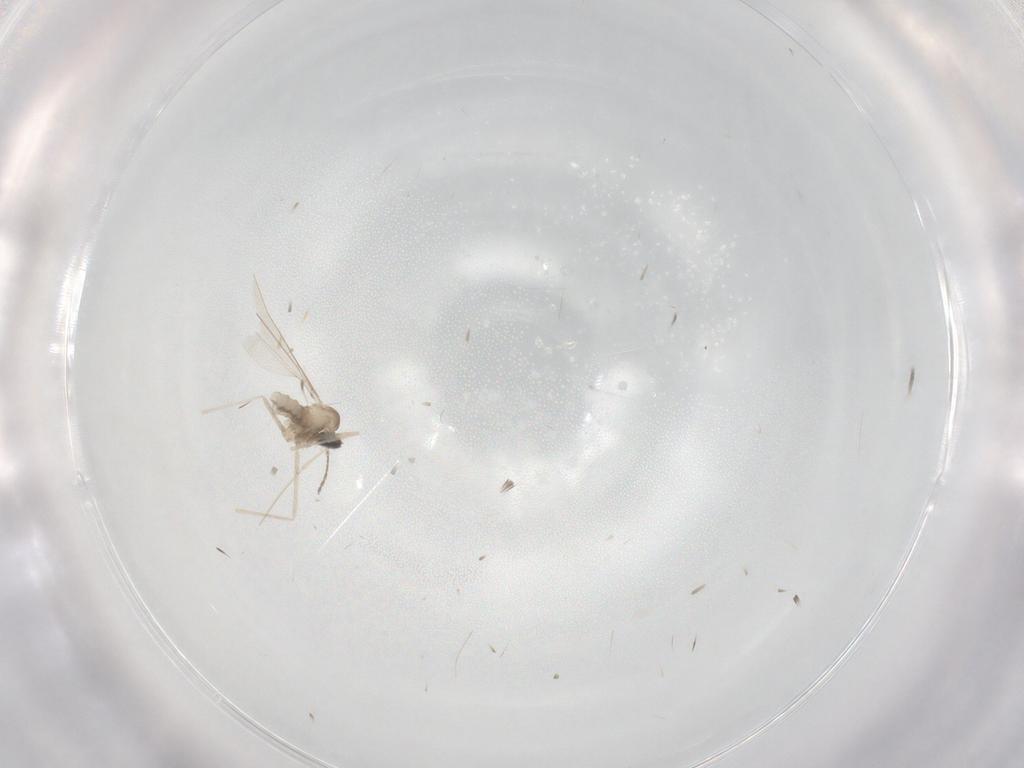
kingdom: Animalia
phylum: Arthropoda
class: Insecta
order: Diptera
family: Cecidomyiidae
